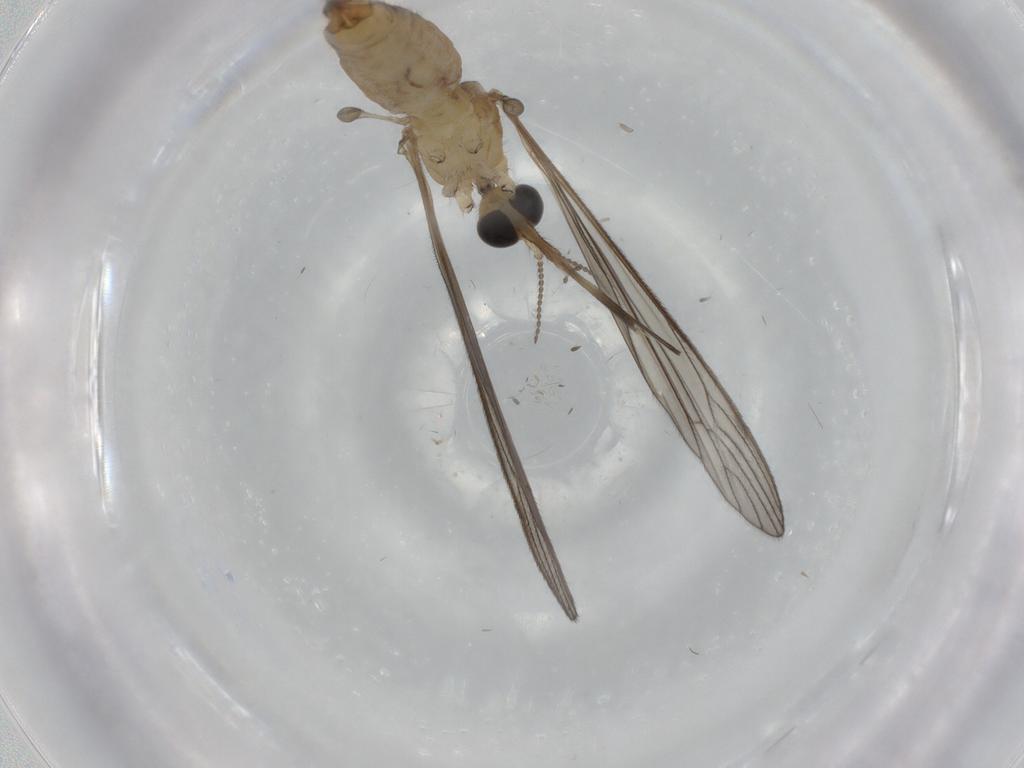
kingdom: Animalia
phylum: Arthropoda
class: Insecta
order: Diptera
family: Limoniidae
